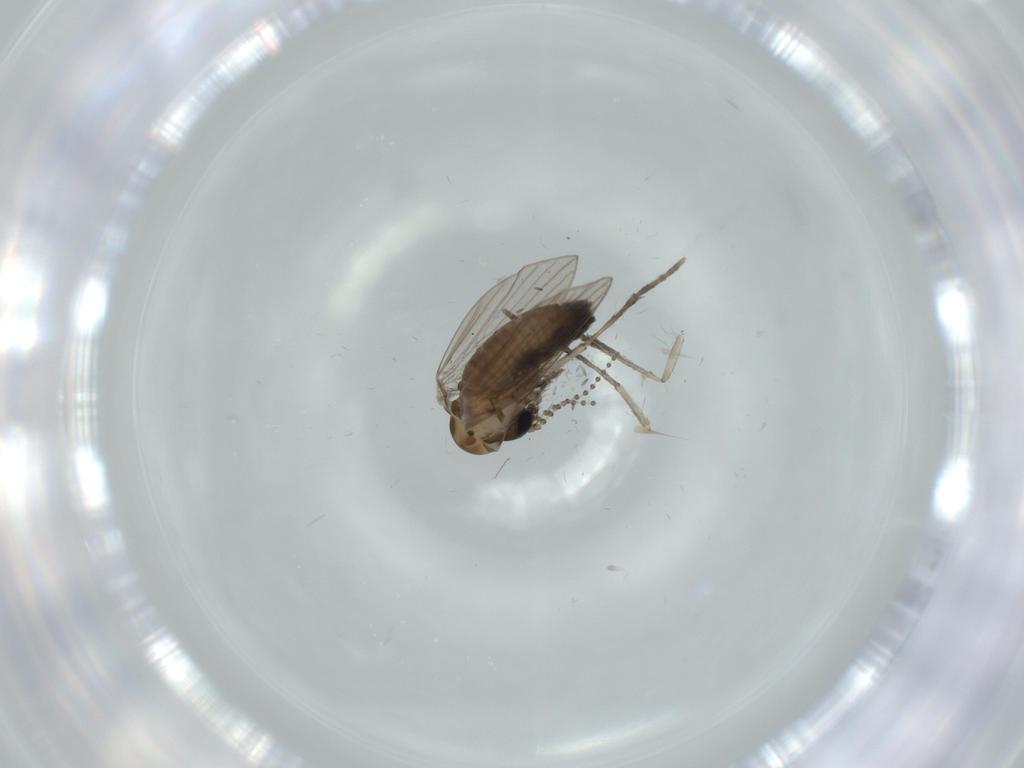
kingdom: Animalia
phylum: Arthropoda
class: Insecta
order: Diptera
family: Psychodidae
